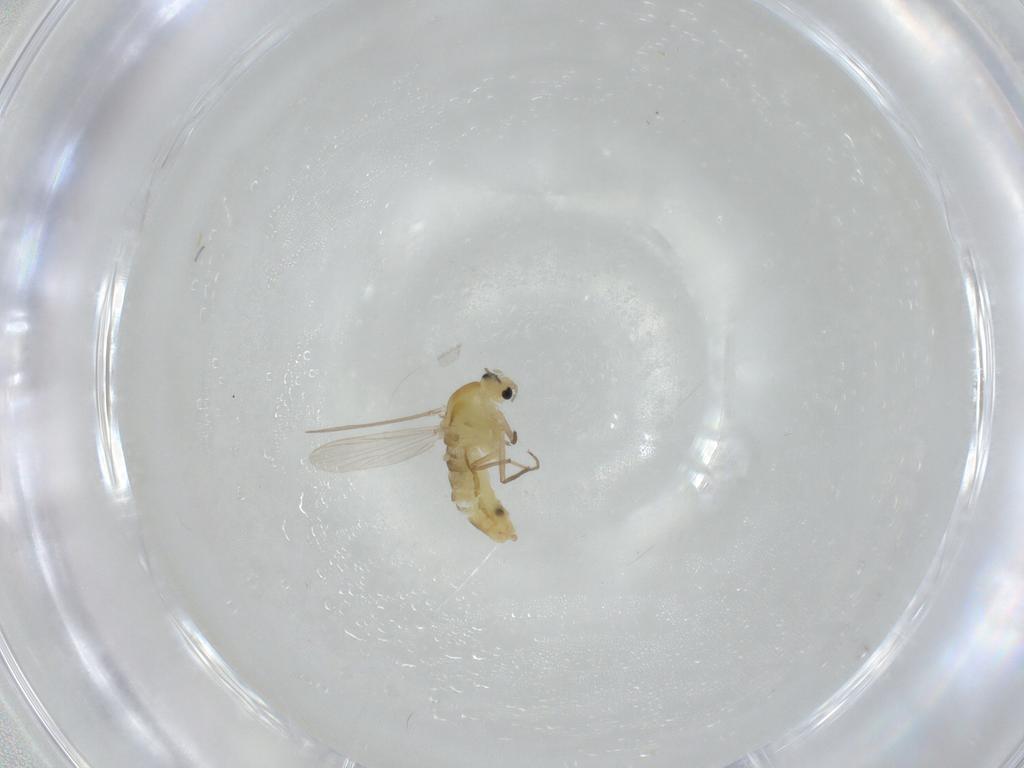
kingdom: Animalia
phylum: Arthropoda
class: Insecta
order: Diptera
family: Chironomidae
